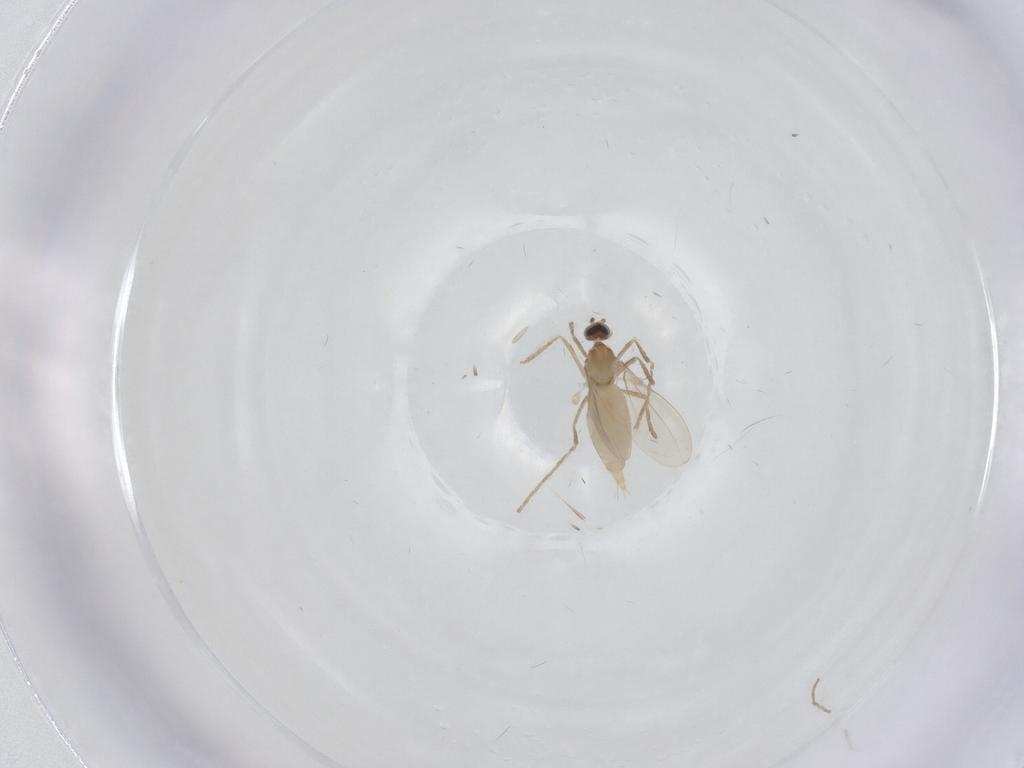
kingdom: Animalia
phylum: Arthropoda
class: Insecta
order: Diptera
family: Cecidomyiidae
